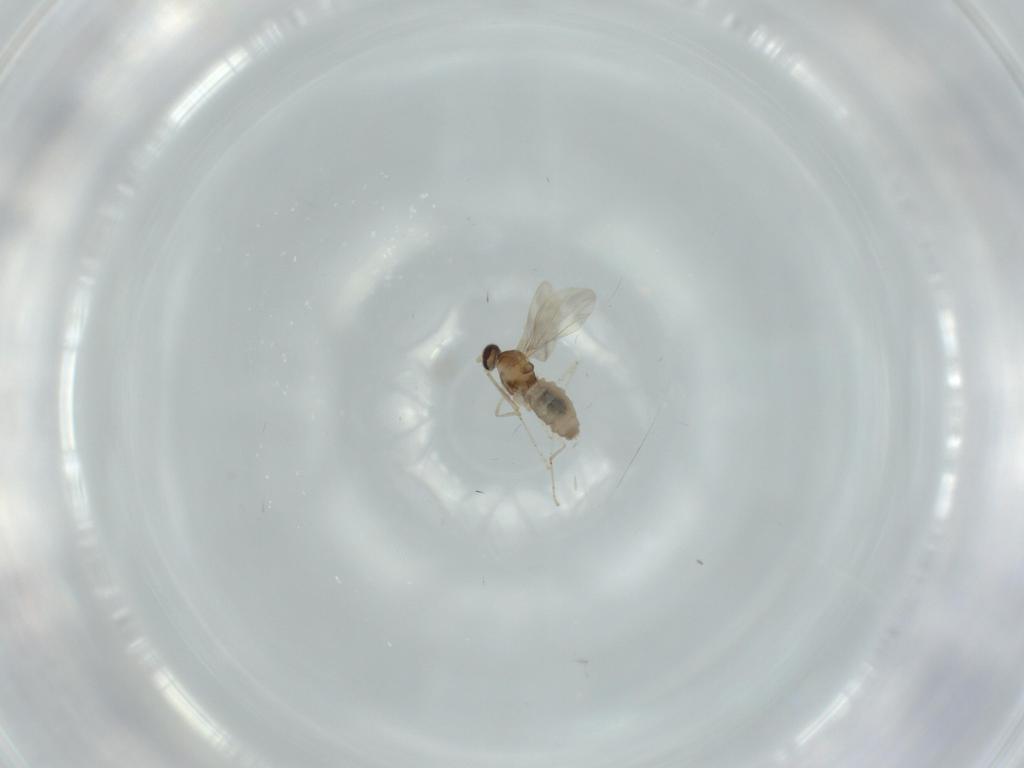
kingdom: Animalia
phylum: Arthropoda
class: Insecta
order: Diptera
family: Cecidomyiidae
